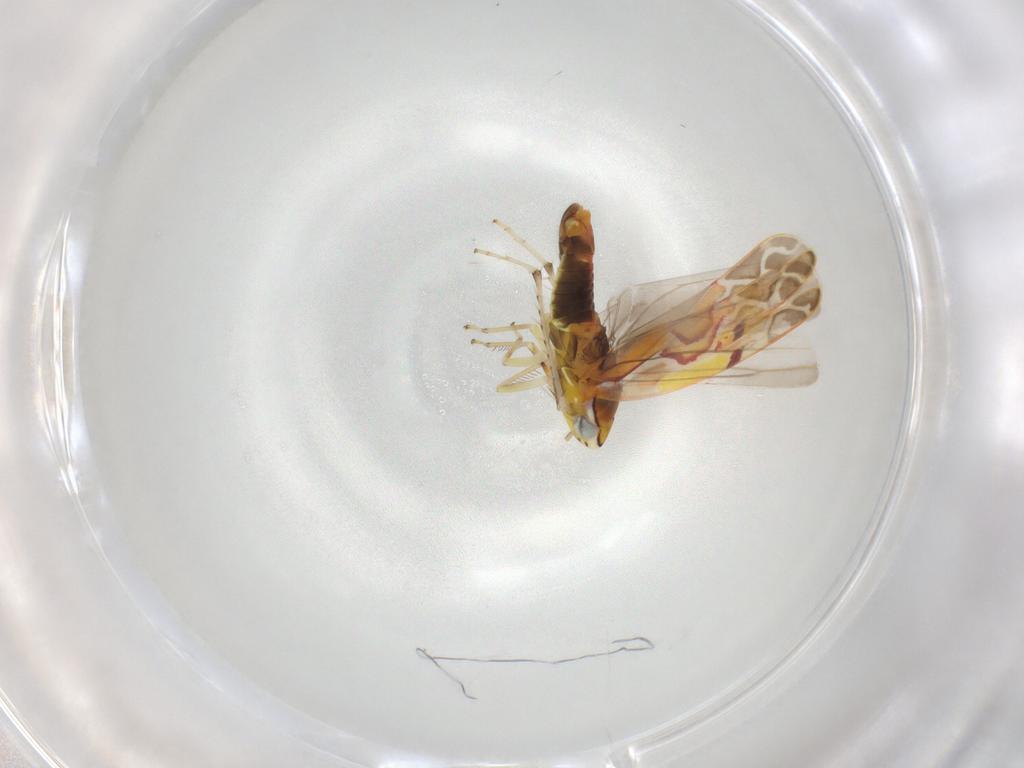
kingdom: Animalia
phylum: Arthropoda
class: Insecta
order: Hemiptera
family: Cicadellidae
